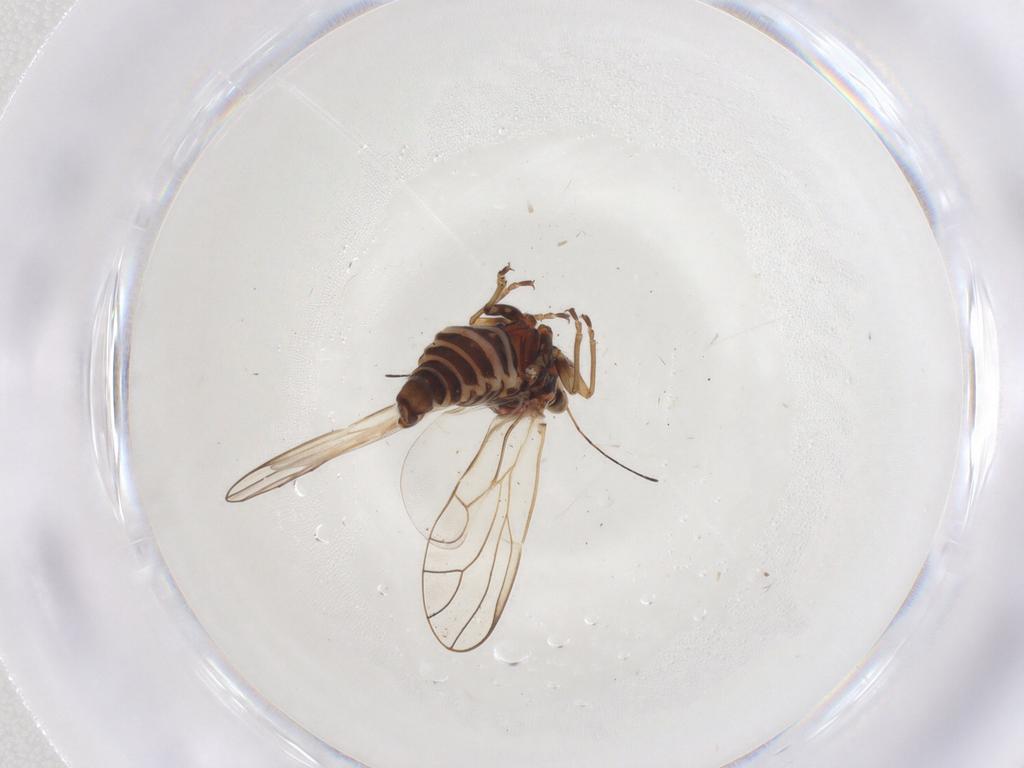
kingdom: Animalia
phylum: Arthropoda
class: Insecta
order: Hemiptera
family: Psyllidae
